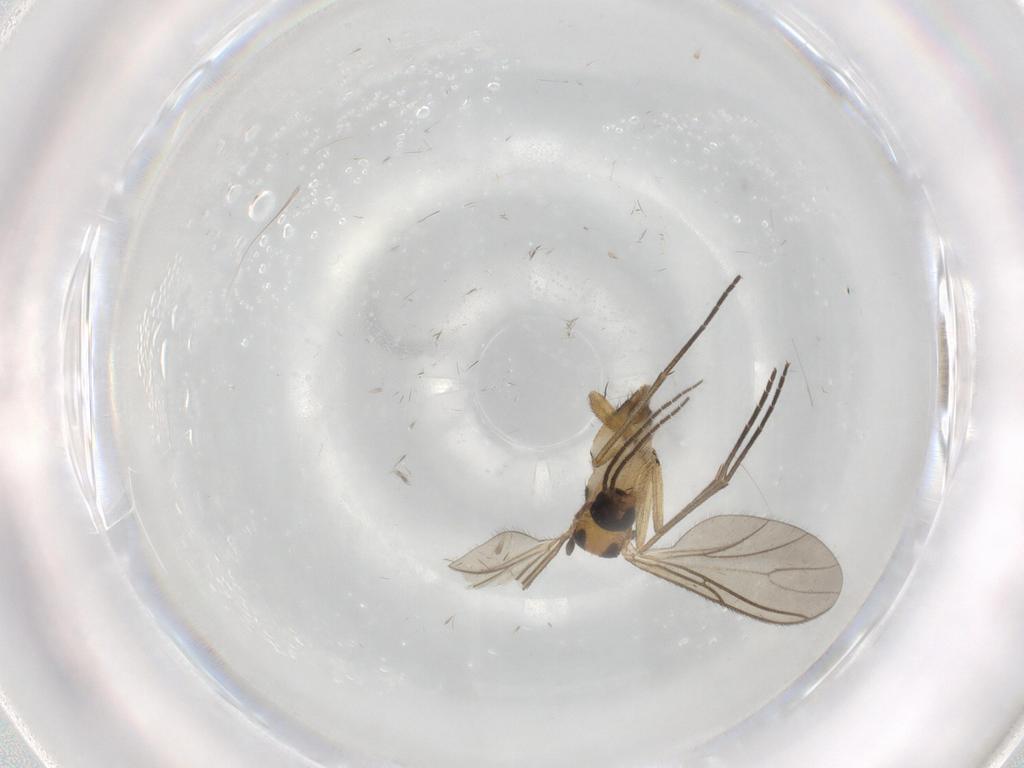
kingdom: Animalia
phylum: Arthropoda
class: Insecta
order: Diptera
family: Sciaridae
